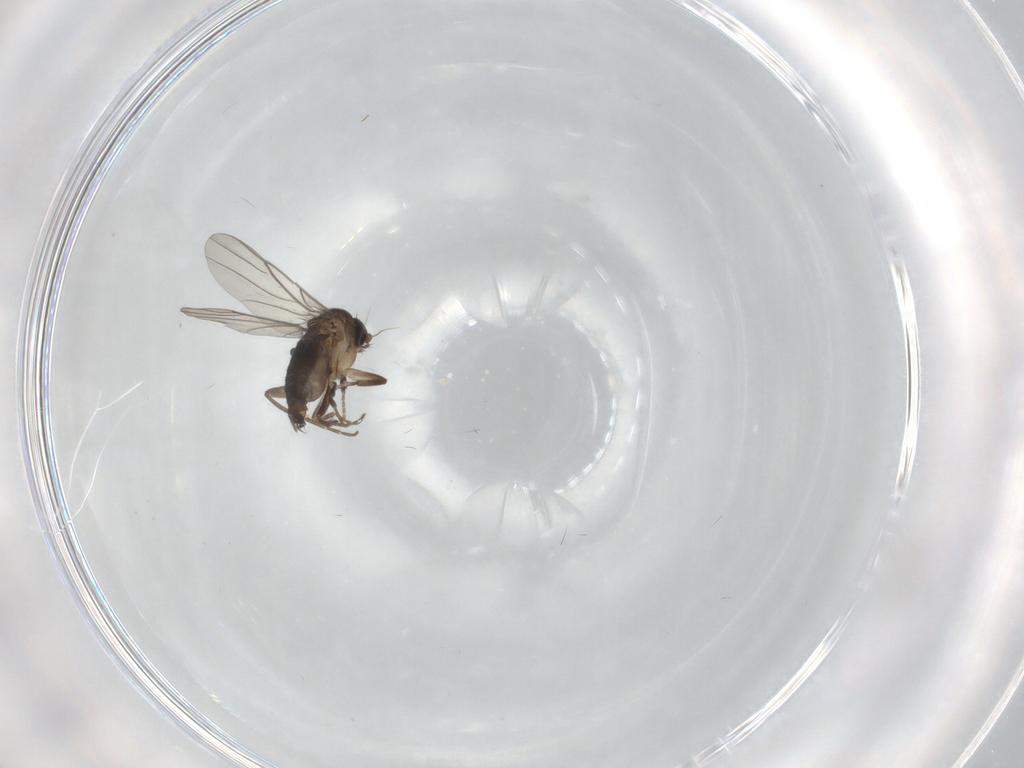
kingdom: Animalia
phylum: Arthropoda
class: Insecta
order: Diptera
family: Phoridae
